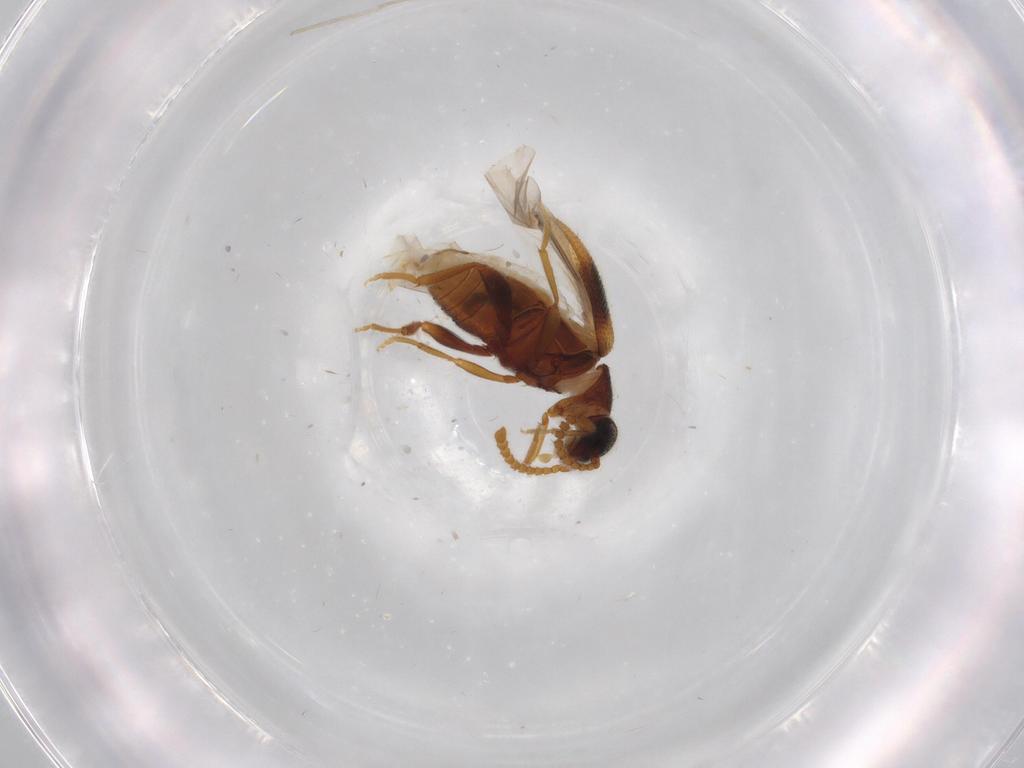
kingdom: Animalia
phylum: Arthropoda
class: Insecta
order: Coleoptera
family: Aderidae
